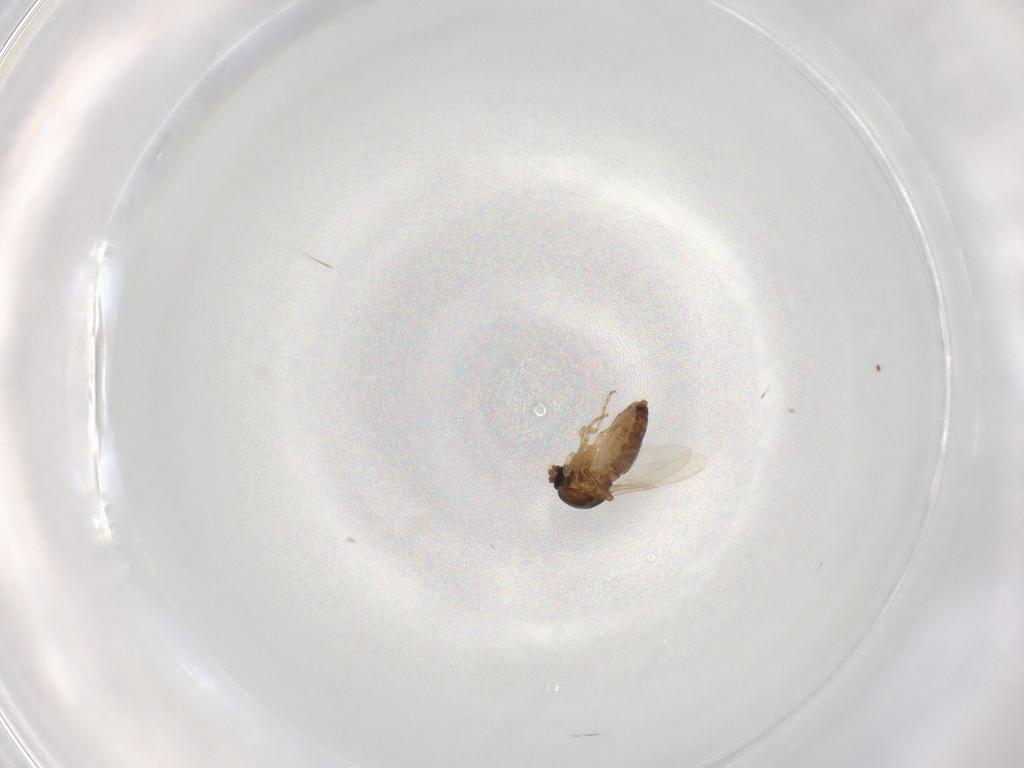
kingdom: Animalia
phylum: Arthropoda
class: Insecta
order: Diptera
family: Ceratopogonidae
